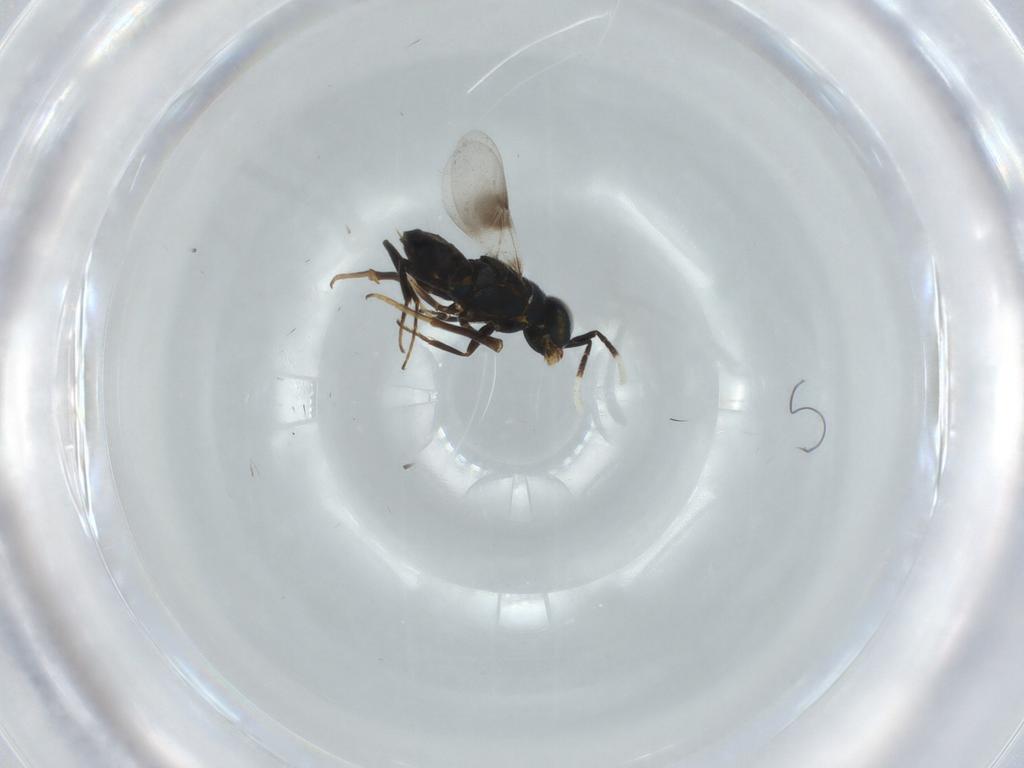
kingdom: Animalia
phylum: Arthropoda
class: Insecta
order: Hymenoptera
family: Encyrtidae
